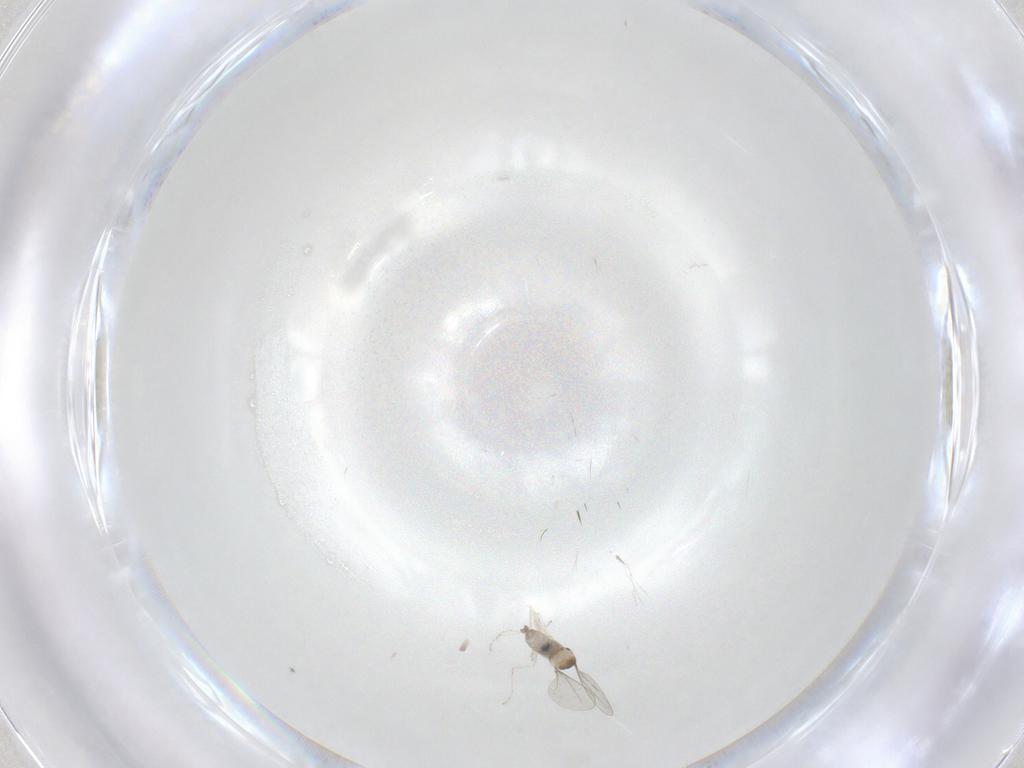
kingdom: Animalia
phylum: Arthropoda
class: Insecta
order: Diptera
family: Cecidomyiidae
